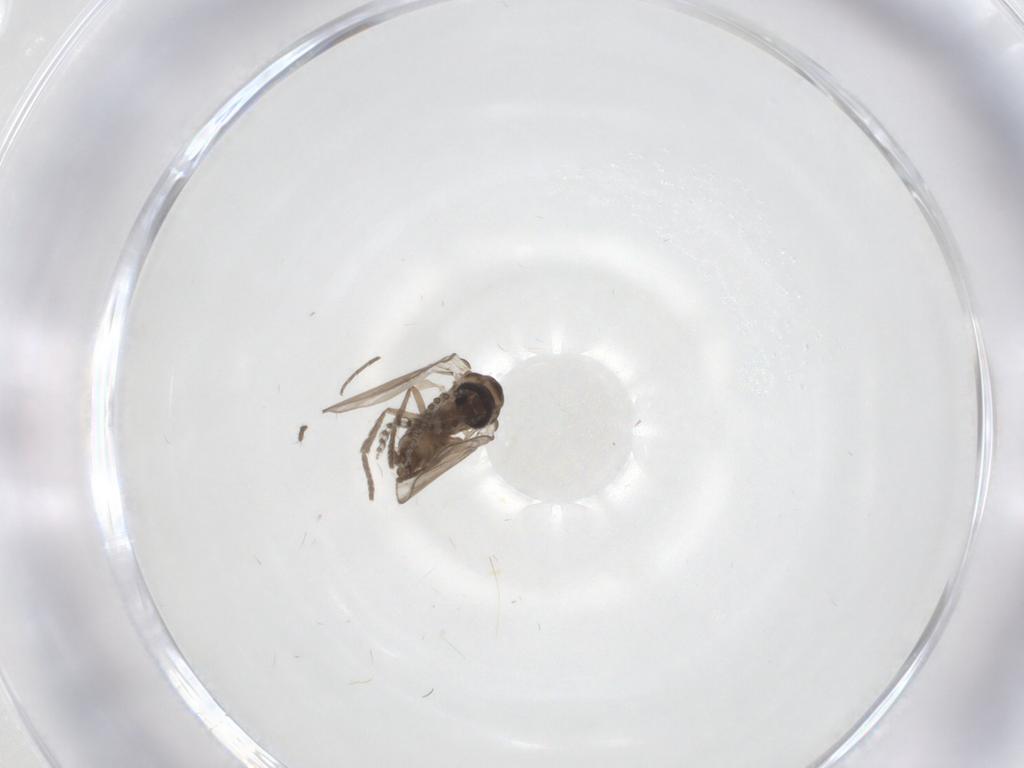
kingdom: Animalia
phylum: Arthropoda
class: Insecta
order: Diptera
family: Psychodidae
